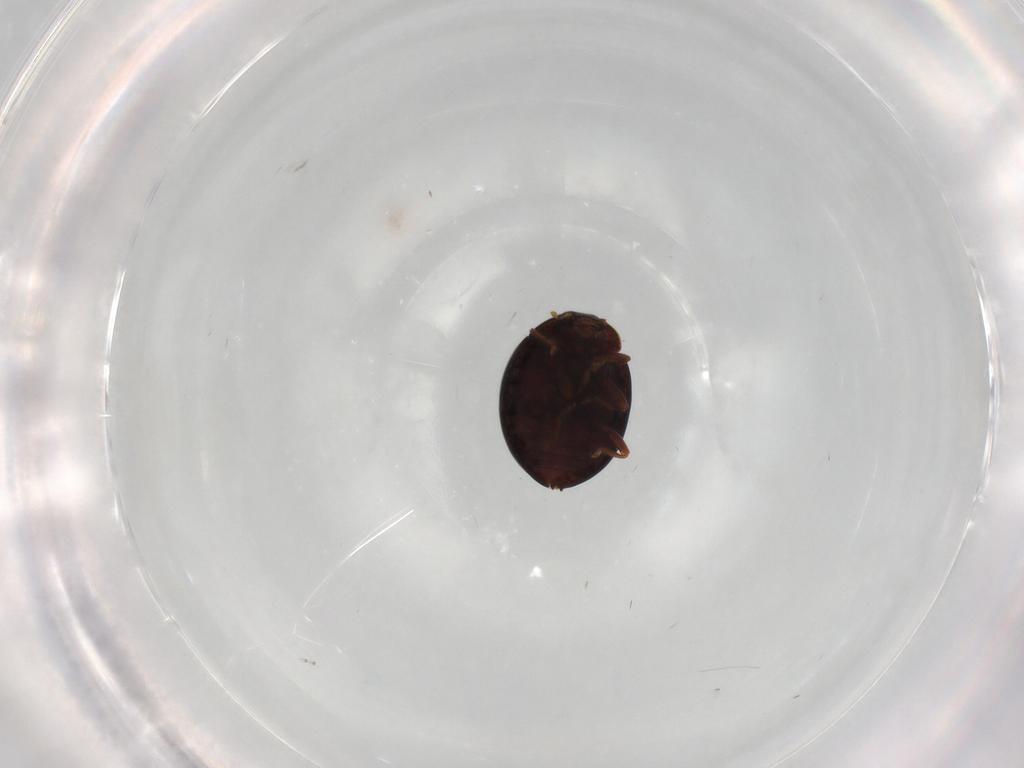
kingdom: Animalia
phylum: Arthropoda
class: Insecta
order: Coleoptera
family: Coccinellidae
